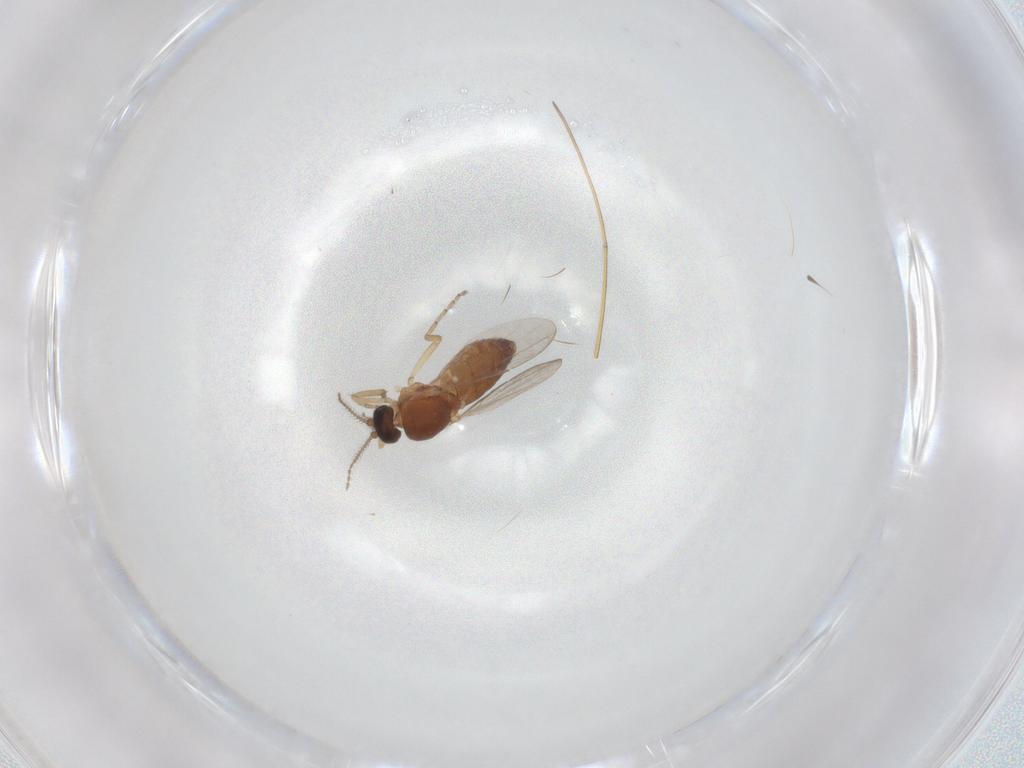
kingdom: Animalia
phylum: Arthropoda
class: Insecta
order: Diptera
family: Ceratopogonidae
